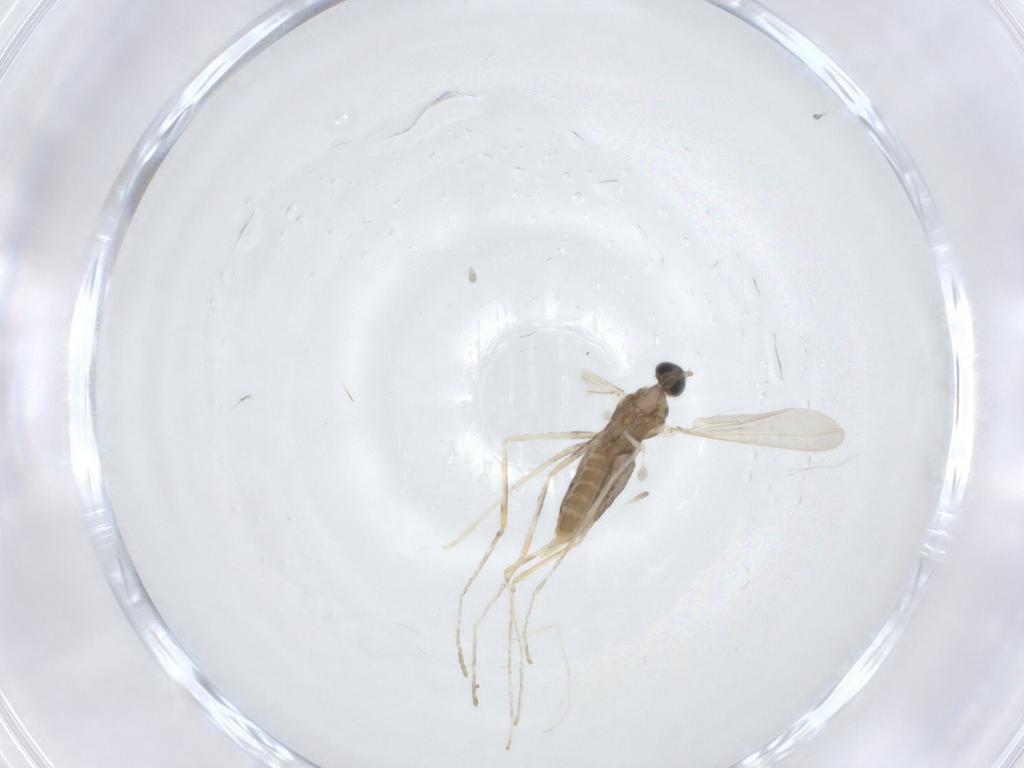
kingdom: Animalia
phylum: Arthropoda
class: Insecta
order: Diptera
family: Cecidomyiidae
